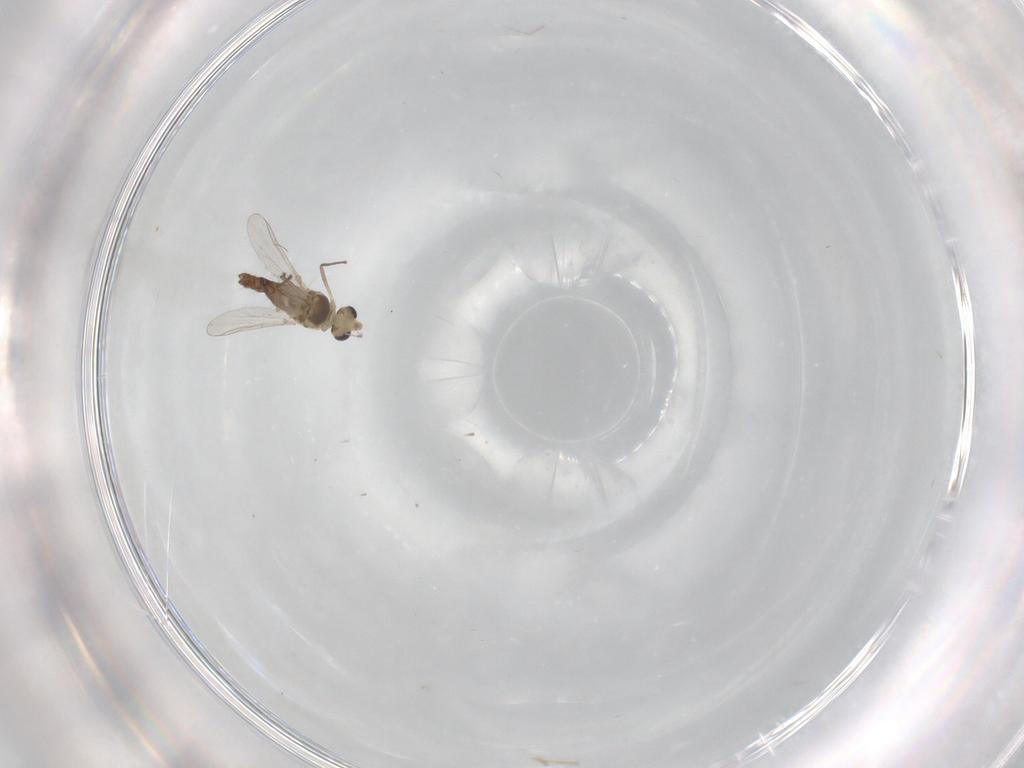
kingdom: Animalia
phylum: Arthropoda
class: Insecta
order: Diptera
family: Chironomidae
